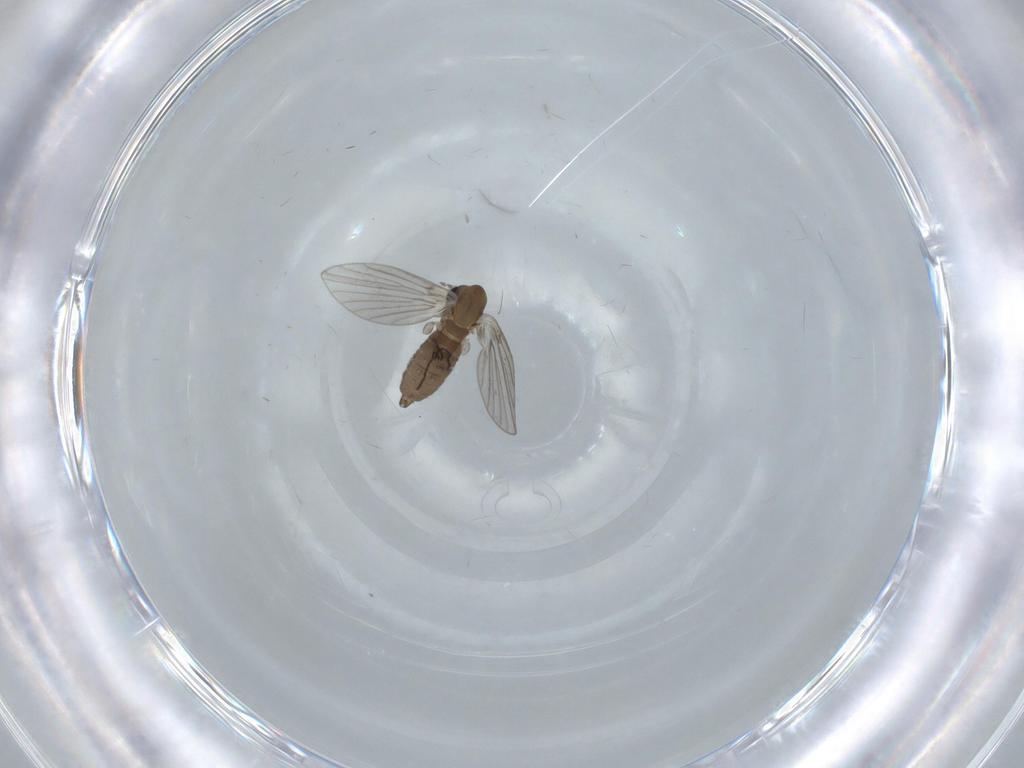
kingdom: Animalia
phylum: Arthropoda
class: Insecta
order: Diptera
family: Psychodidae
